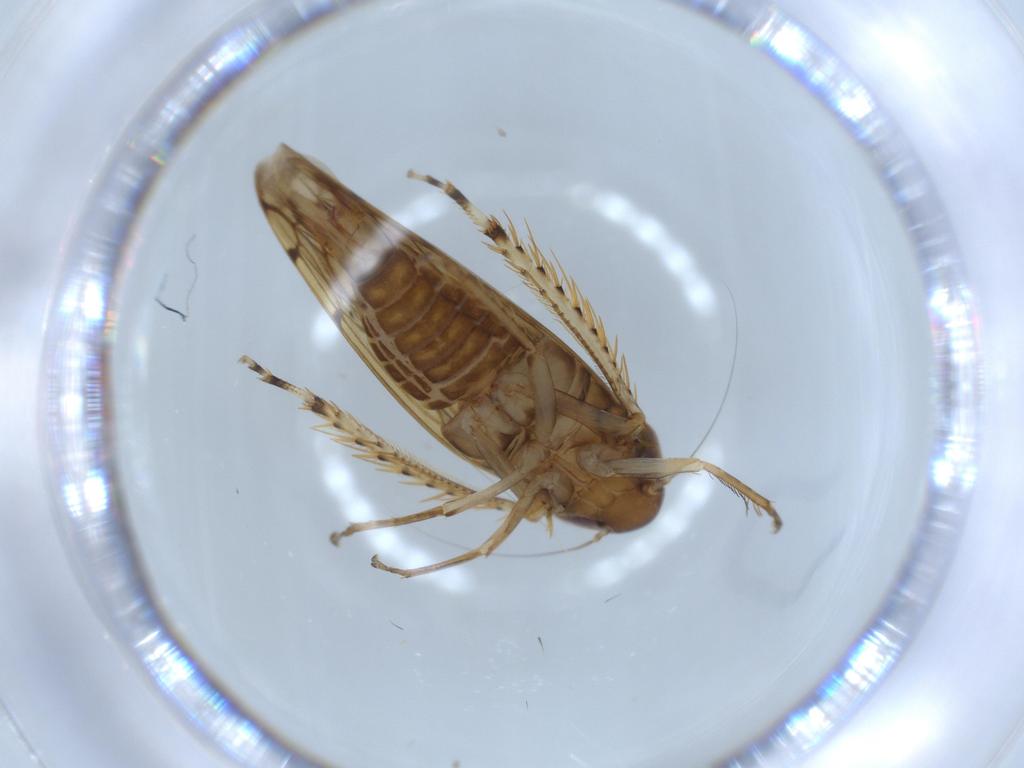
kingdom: Animalia
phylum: Arthropoda
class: Insecta
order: Hemiptera
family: Cicadellidae
